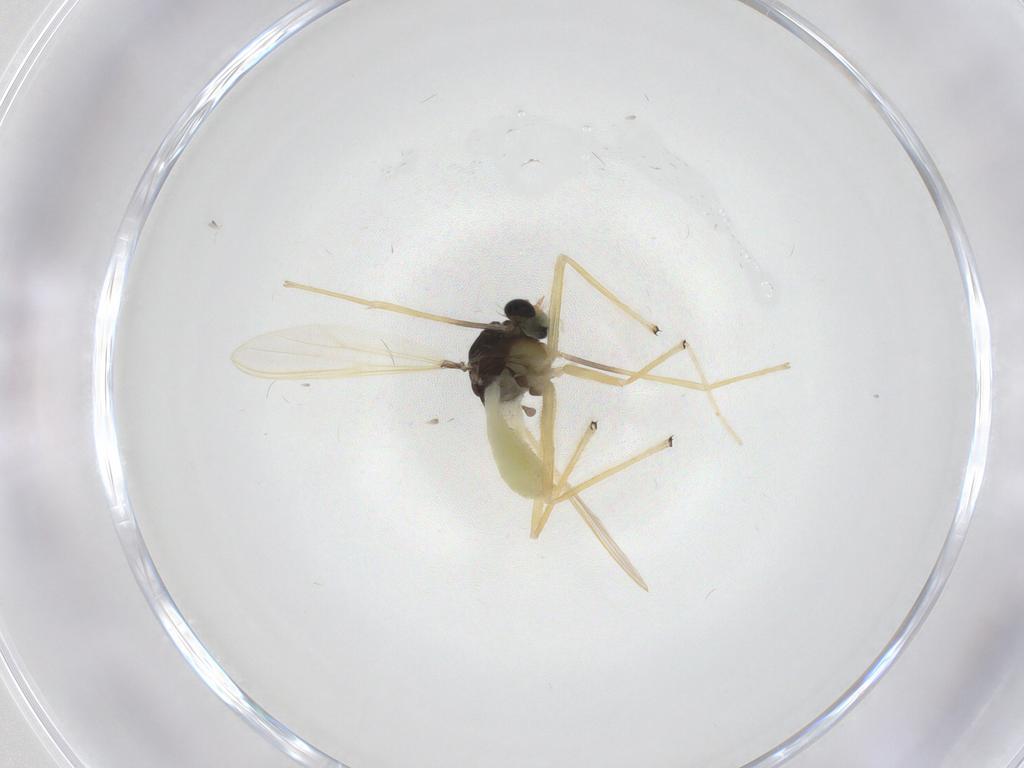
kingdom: Animalia
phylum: Arthropoda
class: Insecta
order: Diptera
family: Chironomidae
